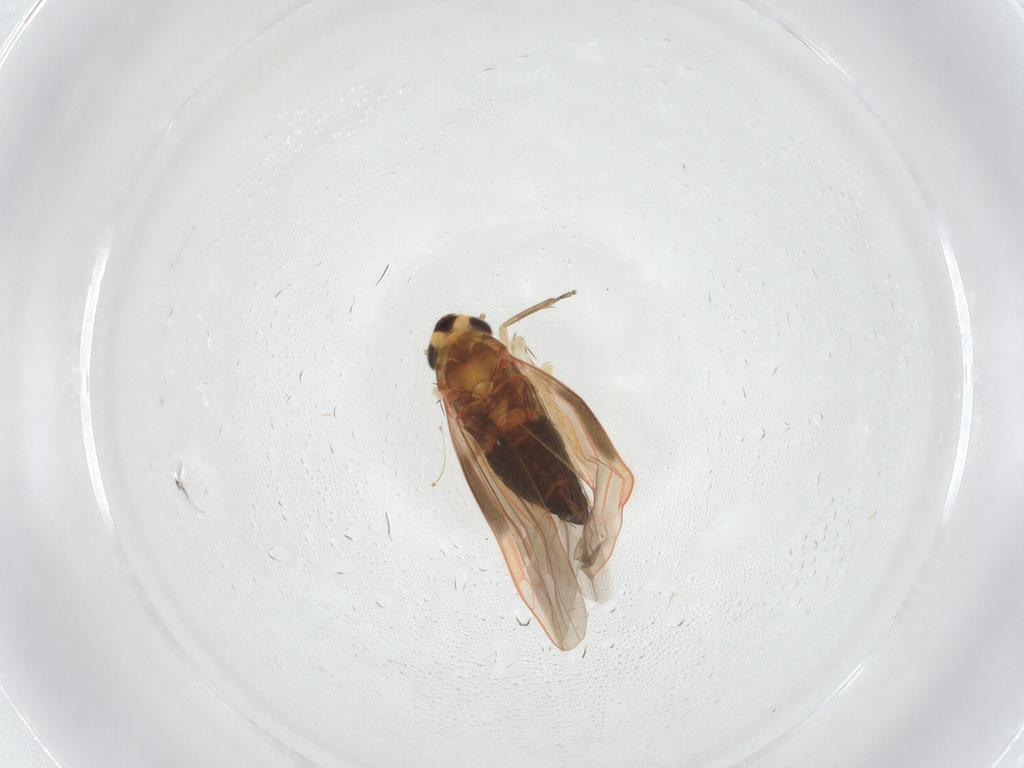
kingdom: Animalia
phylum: Arthropoda
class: Insecta
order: Hemiptera
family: Cicadellidae
